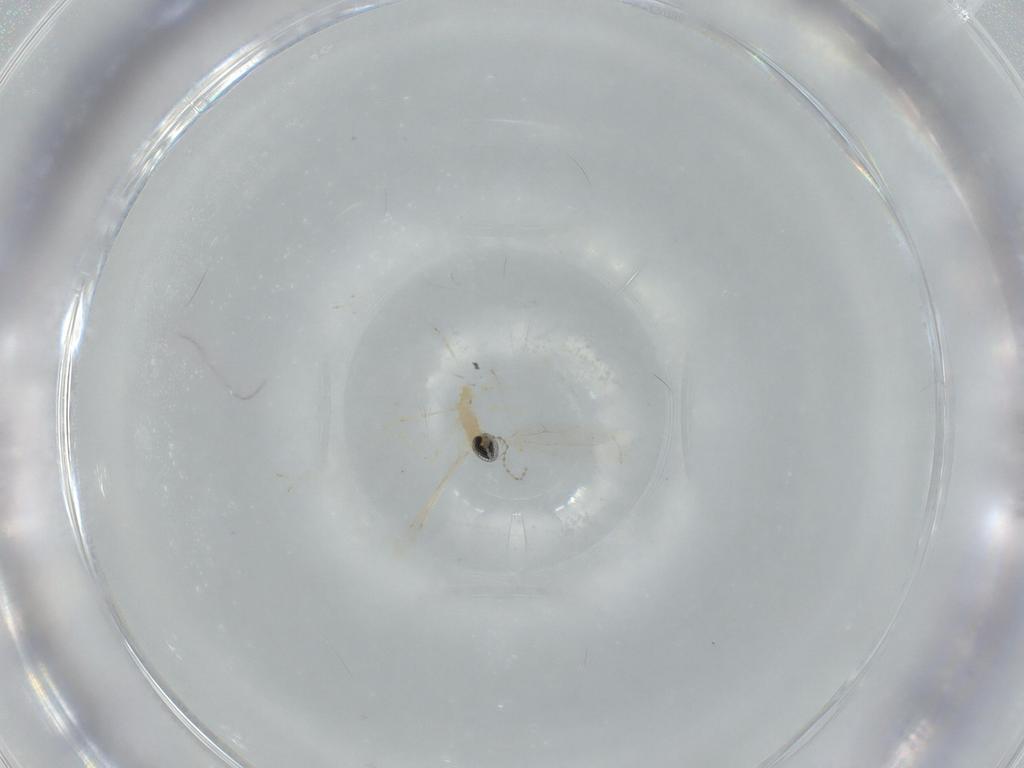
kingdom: Animalia
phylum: Arthropoda
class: Insecta
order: Diptera
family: Cecidomyiidae
